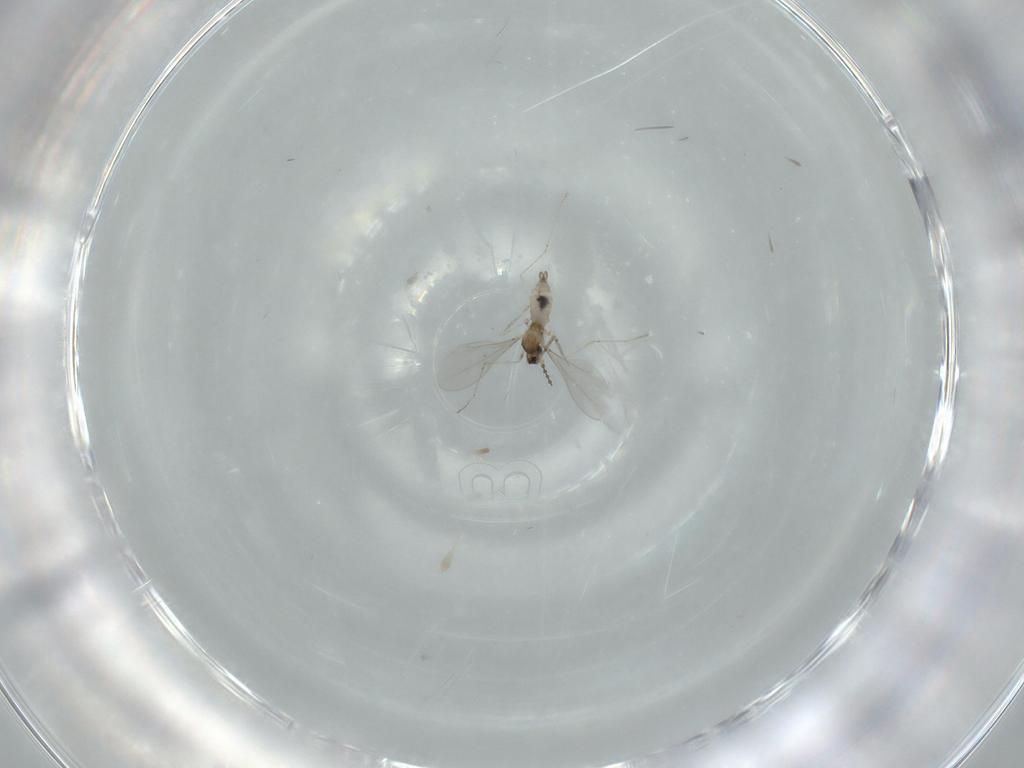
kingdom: Animalia
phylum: Arthropoda
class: Insecta
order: Diptera
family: Cecidomyiidae
